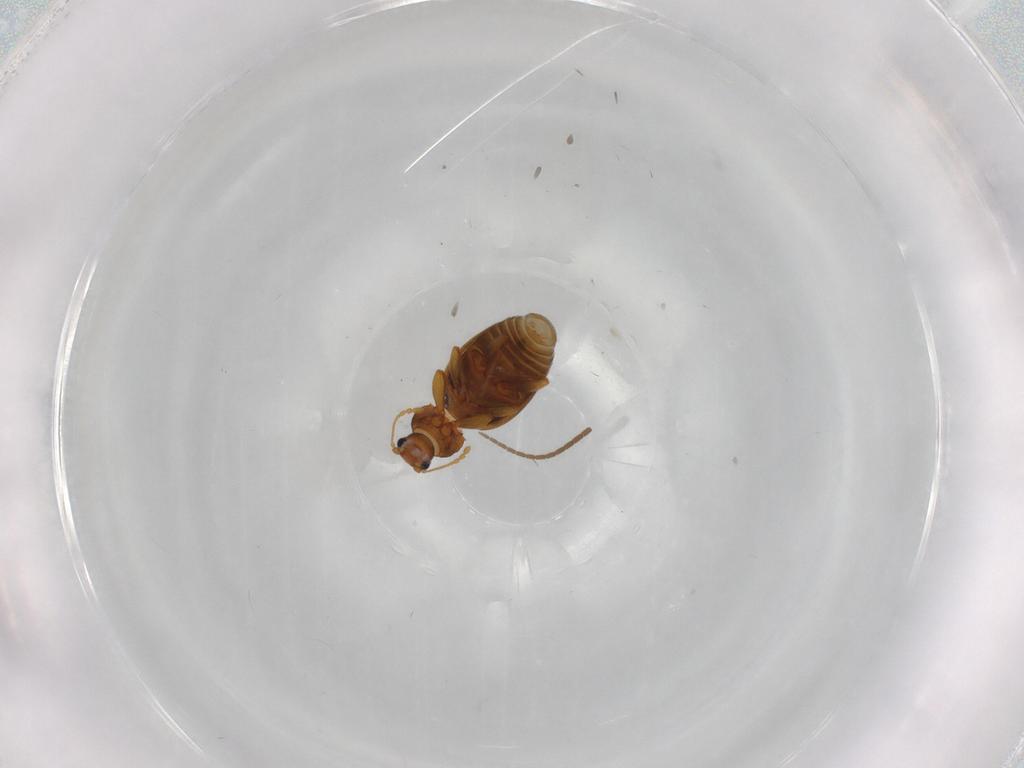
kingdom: Animalia
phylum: Arthropoda
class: Insecta
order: Coleoptera
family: Latridiidae
